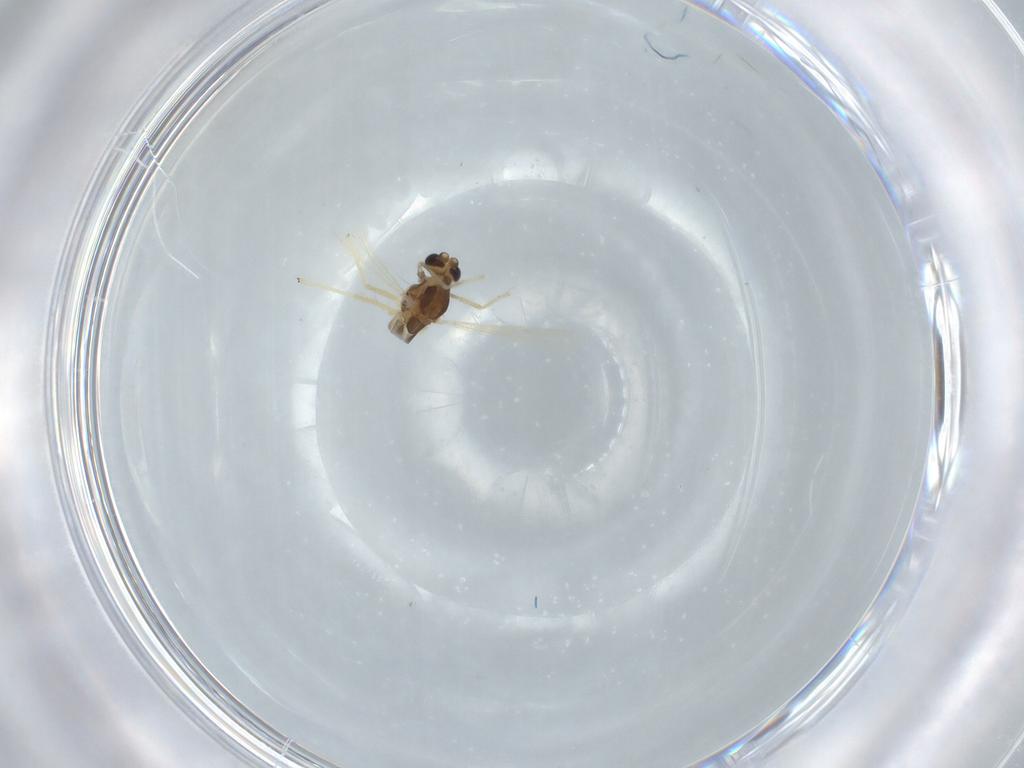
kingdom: Animalia
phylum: Arthropoda
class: Insecta
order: Diptera
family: Chironomidae
